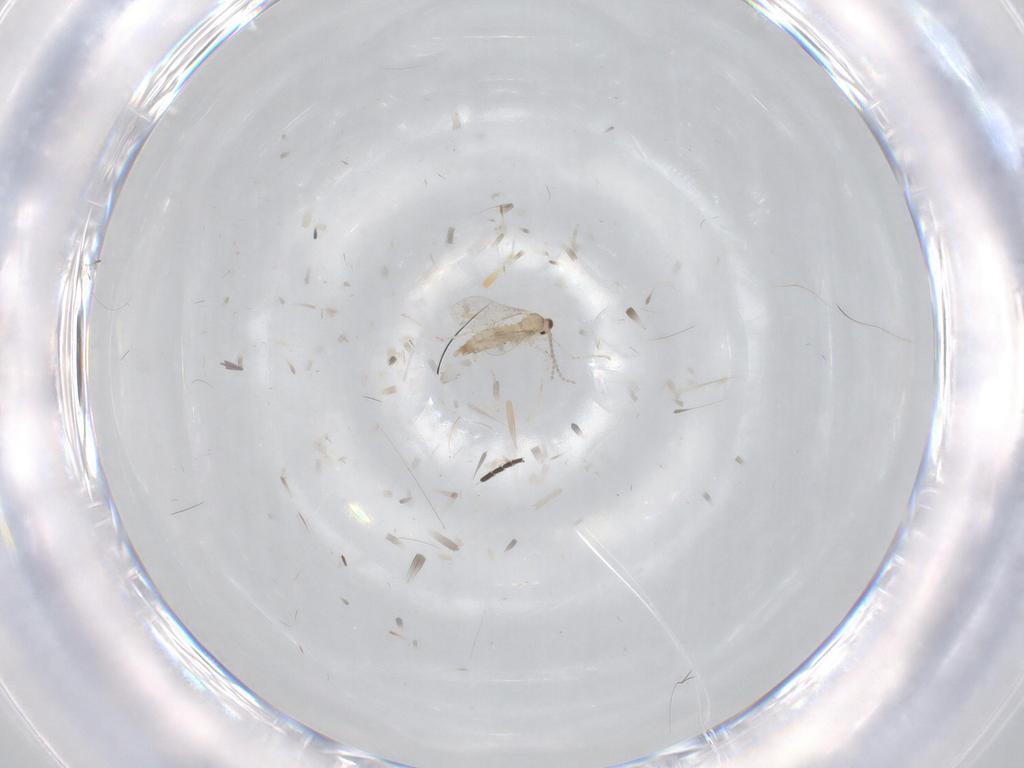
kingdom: Animalia
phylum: Arthropoda
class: Insecta
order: Diptera
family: Cecidomyiidae
